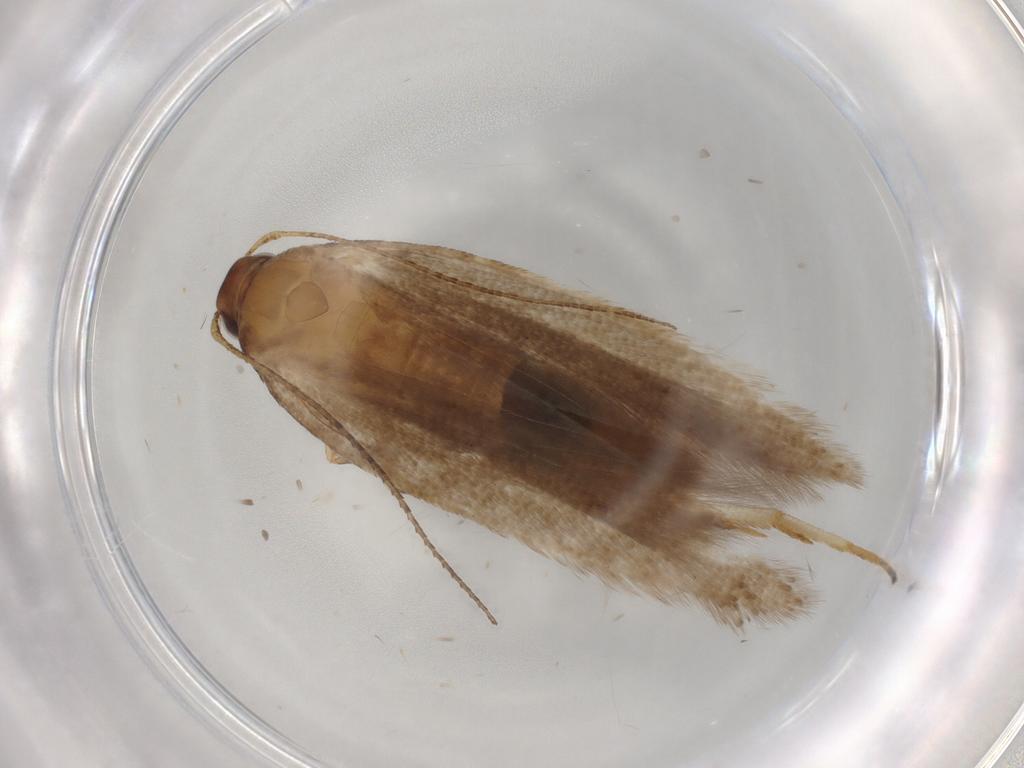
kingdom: Animalia
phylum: Arthropoda
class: Insecta
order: Lepidoptera
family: Gelechiidae
